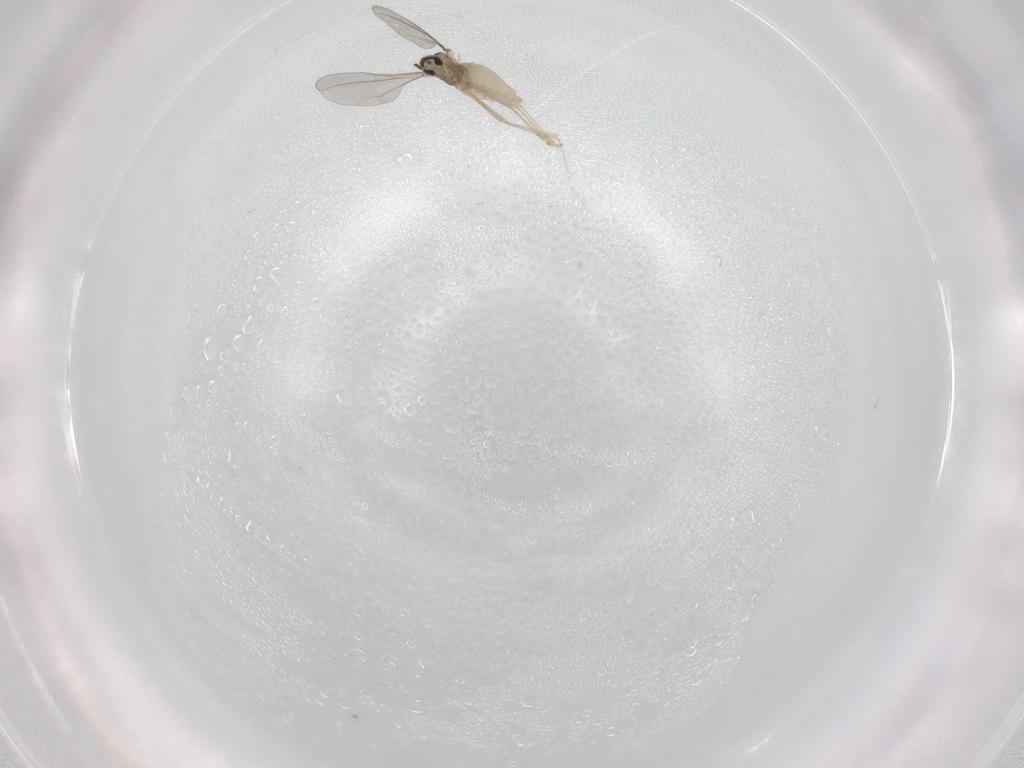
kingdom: Animalia
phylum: Arthropoda
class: Insecta
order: Diptera
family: Cecidomyiidae
